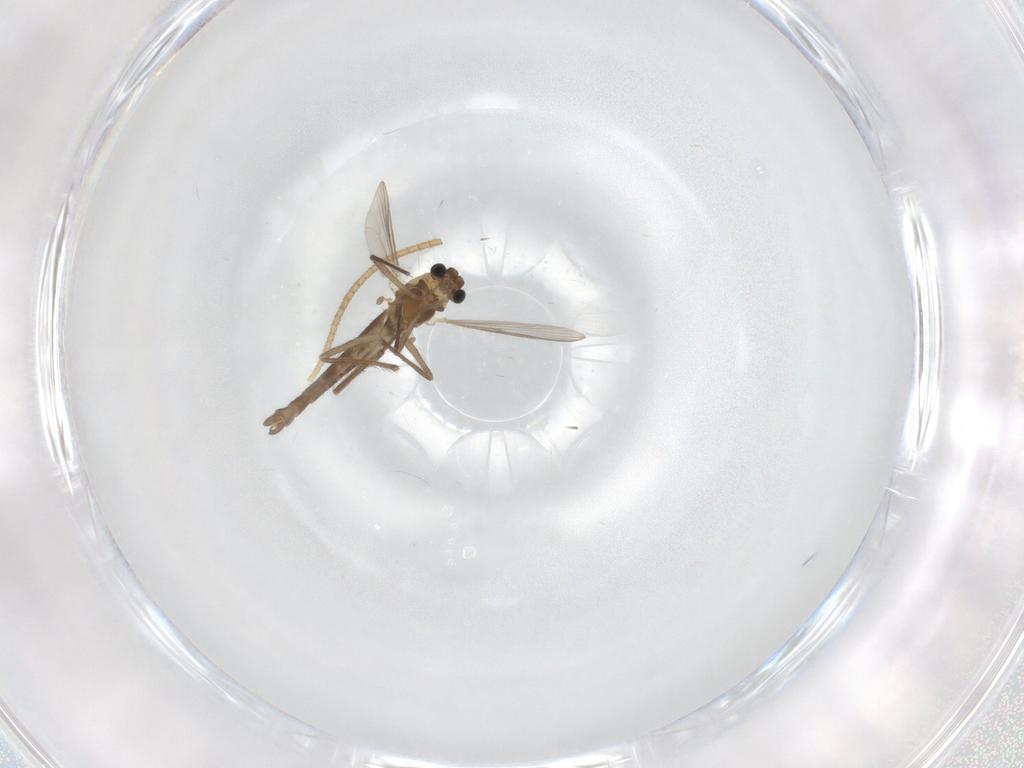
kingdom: Animalia
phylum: Arthropoda
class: Insecta
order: Diptera
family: Chironomidae
